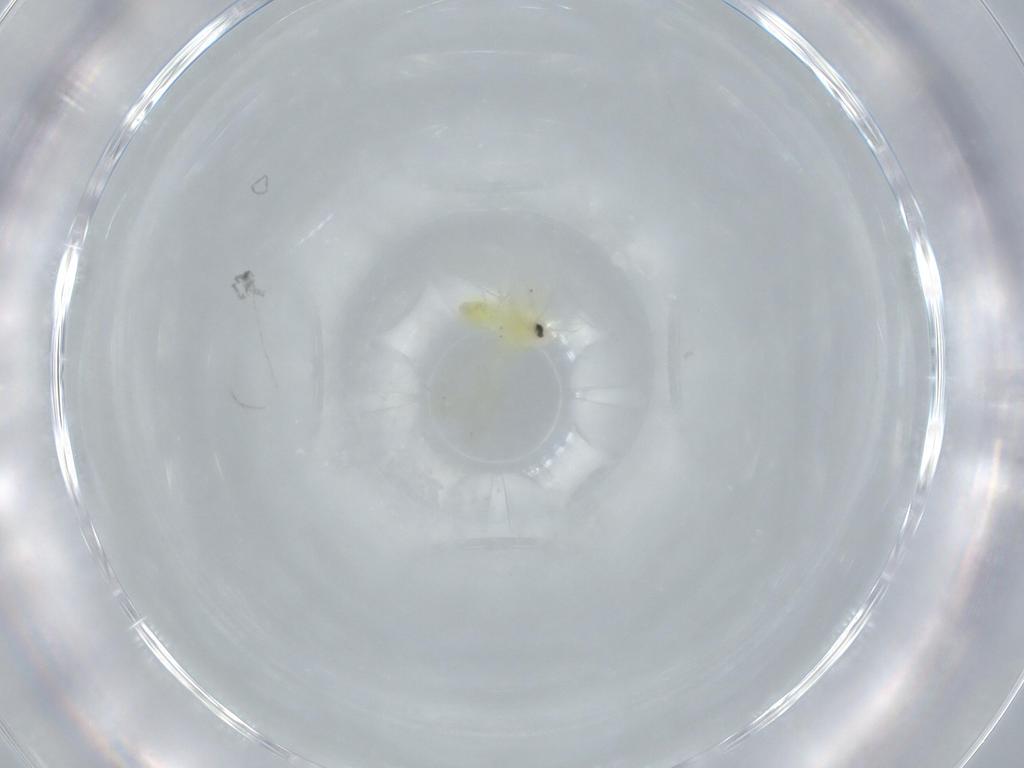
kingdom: Animalia
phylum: Arthropoda
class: Insecta
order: Hemiptera
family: Aleyrodidae
